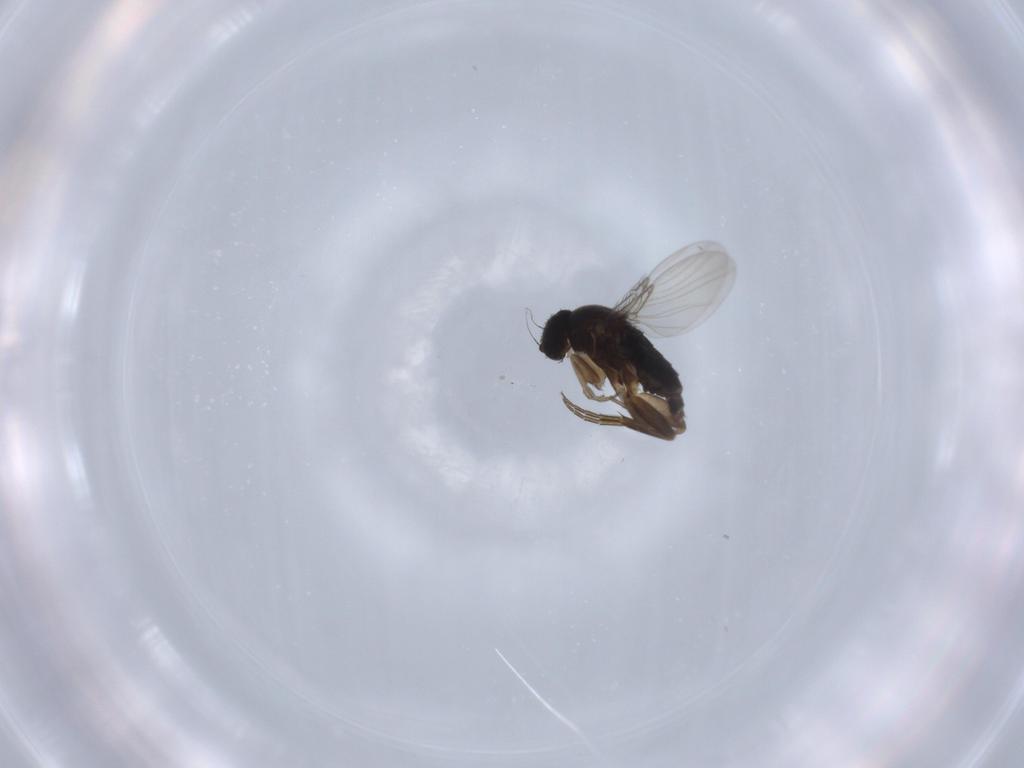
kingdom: Animalia
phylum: Arthropoda
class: Insecta
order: Diptera
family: Phoridae
